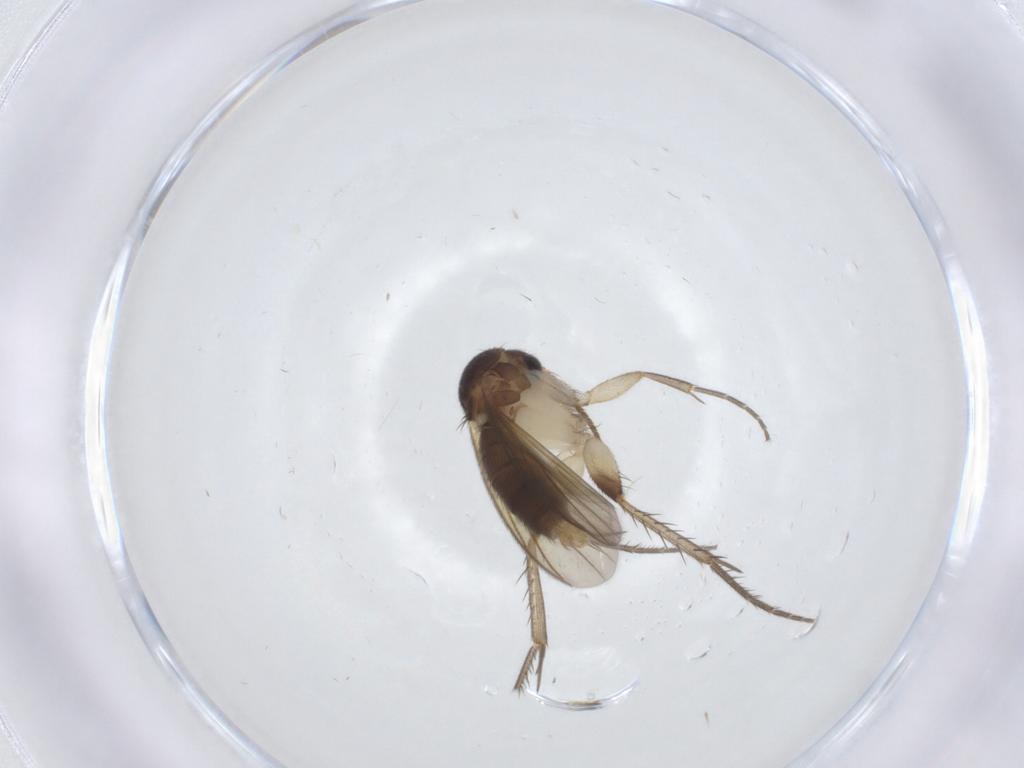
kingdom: Animalia
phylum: Arthropoda
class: Insecta
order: Diptera
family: Mycetophilidae
